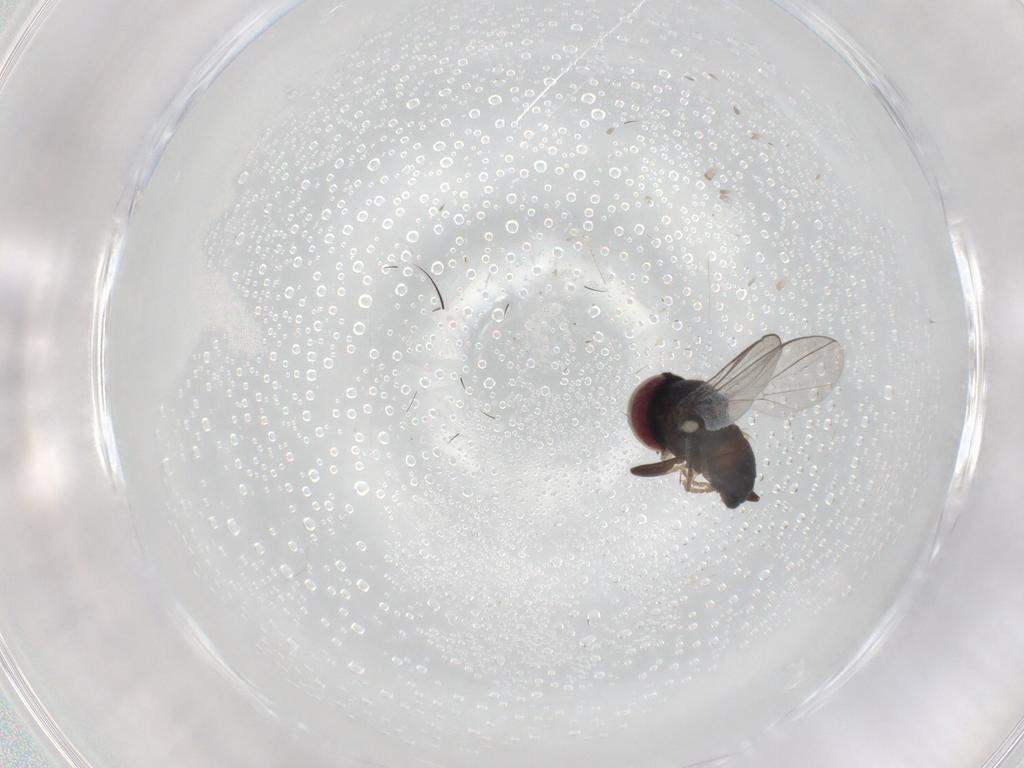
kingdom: Animalia
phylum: Arthropoda
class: Insecta
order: Diptera
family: Pipunculidae
